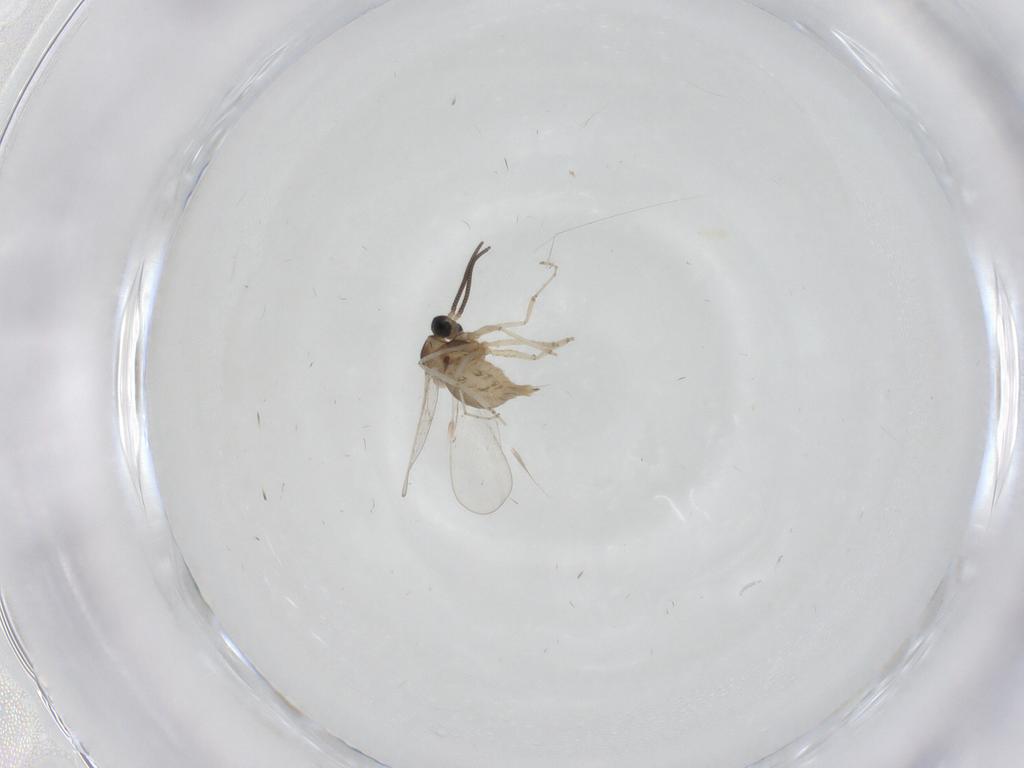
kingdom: Animalia
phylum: Arthropoda
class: Insecta
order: Diptera
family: Cecidomyiidae
